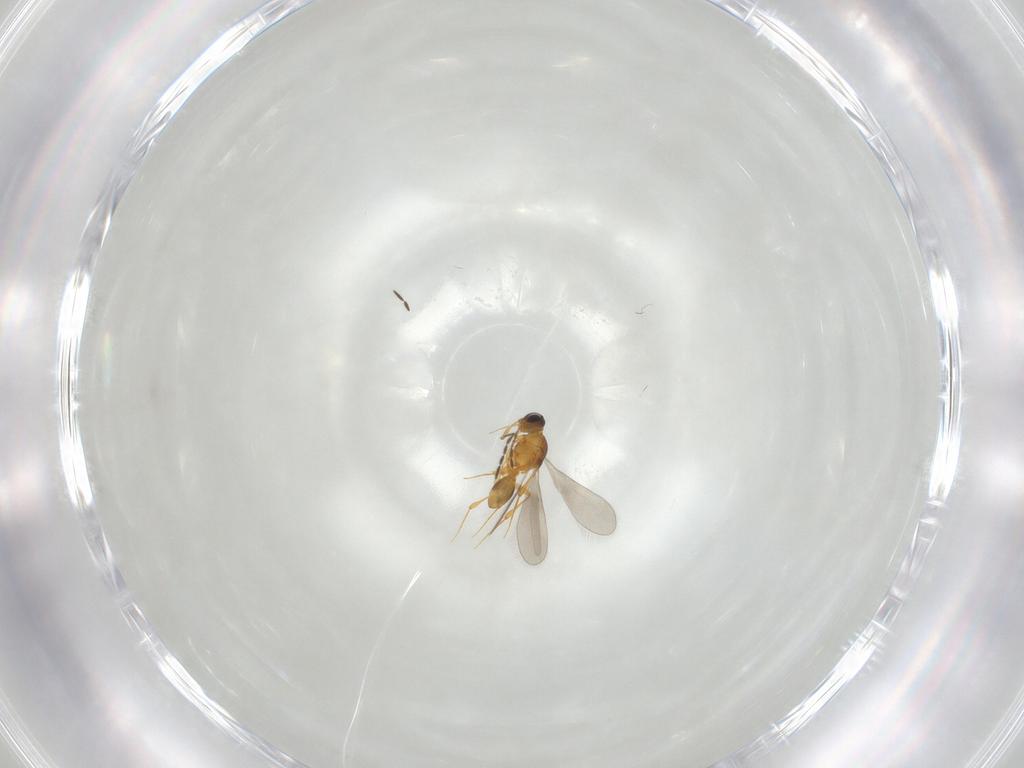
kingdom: Animalia
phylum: Arthropoda
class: Insecta
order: Hymenoptera
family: Platygastridae
